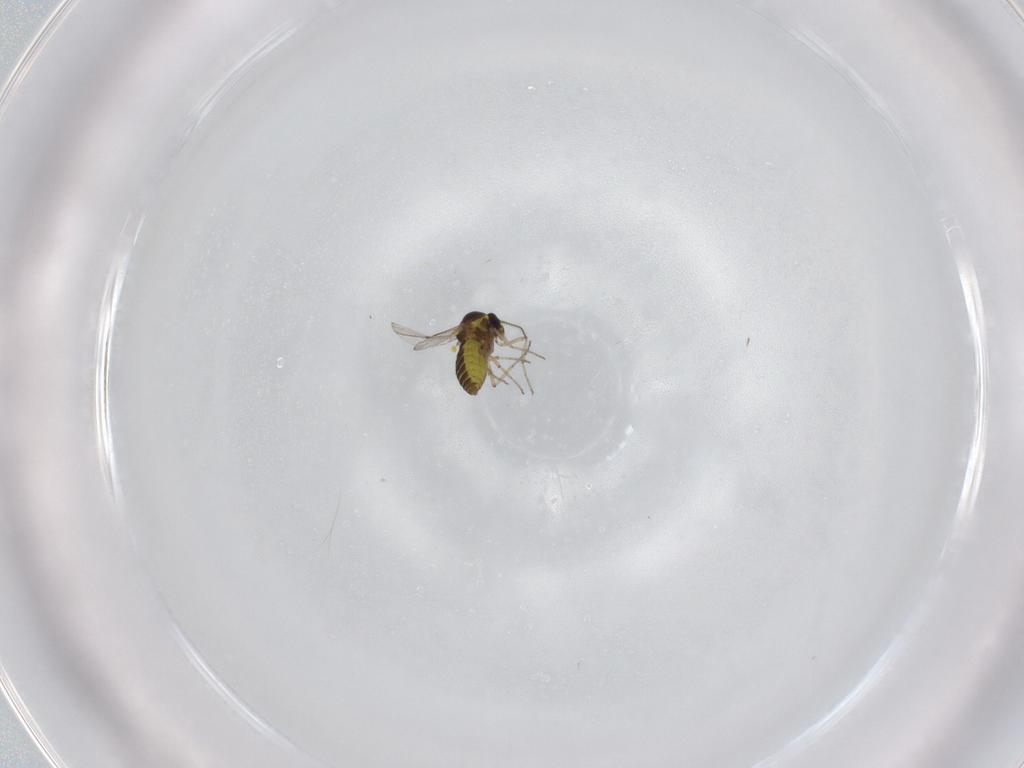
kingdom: Animalia
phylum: Arthropoda
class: Insecta
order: Diptera
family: Ceratopogonidae
